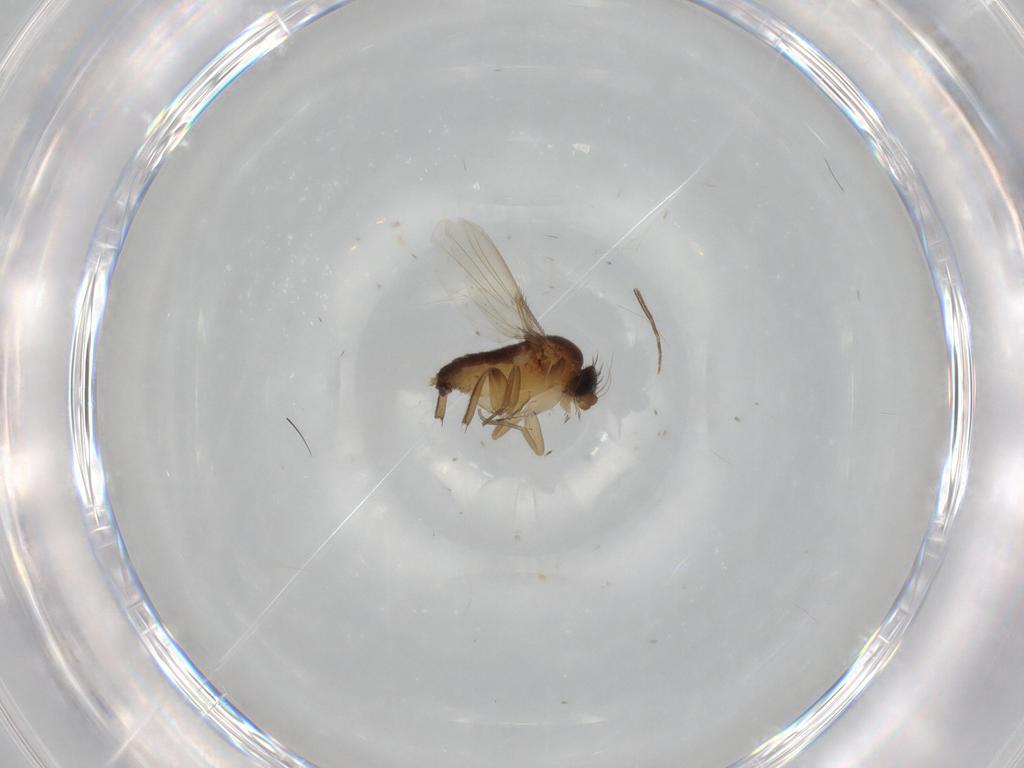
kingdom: Animalia
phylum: Arthropoda
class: Insecta
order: Diptera
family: Phoridae
